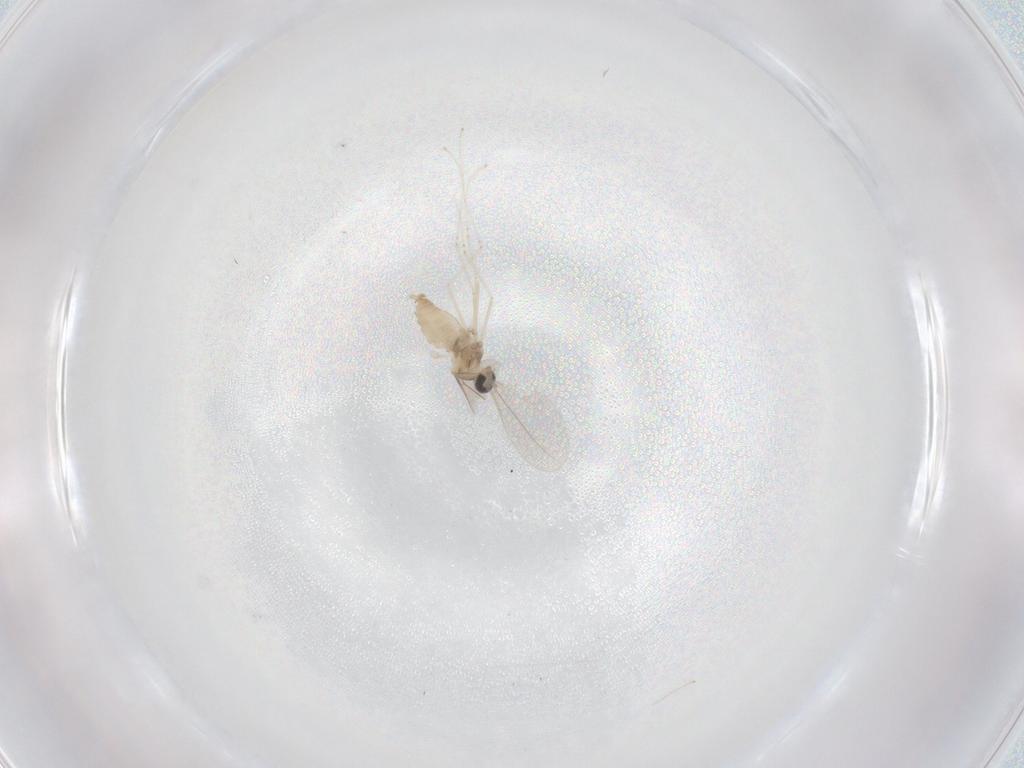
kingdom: Animalia
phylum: Arthropoda
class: Insecta
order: Diptera
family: Cecidomyiidae
